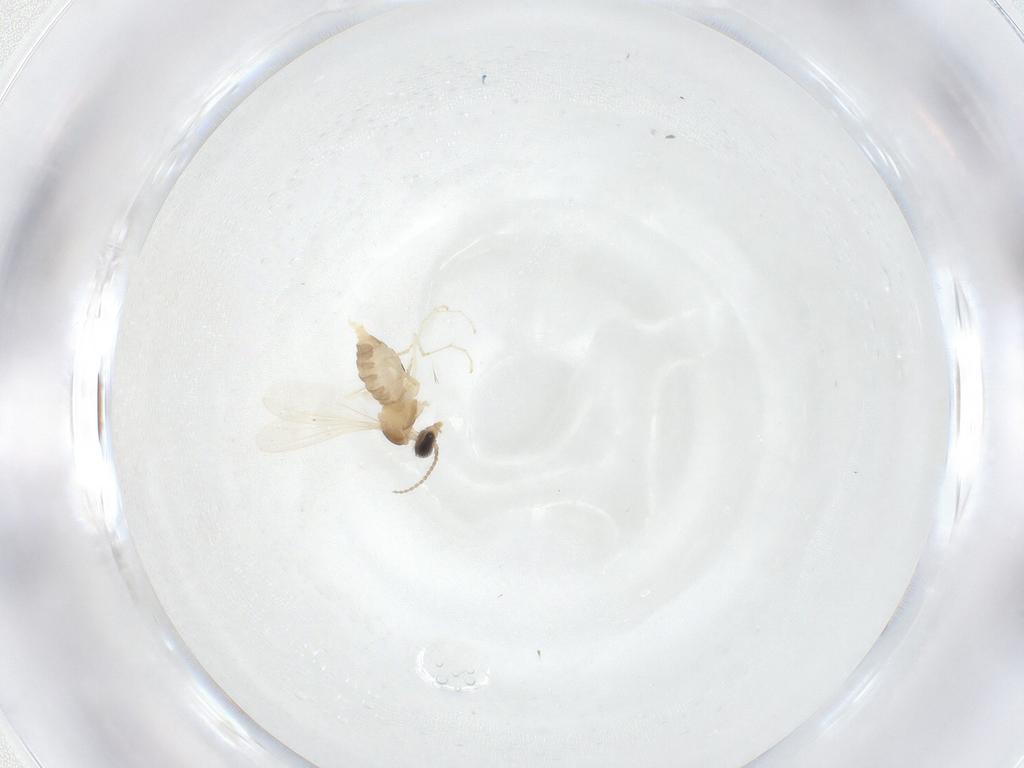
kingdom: Animalia
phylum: Arthropoda
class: Insecta
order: Diptera
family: Cecidomyiidae
